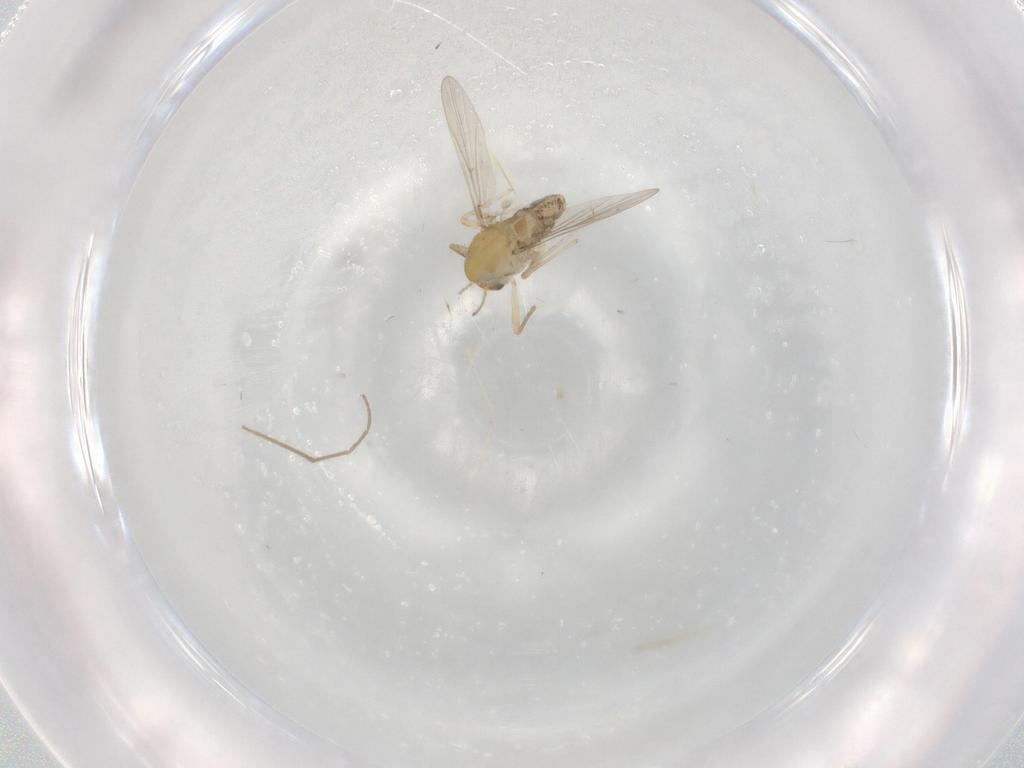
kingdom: Animalia
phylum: Arthropoda
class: Insecta
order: Diptera
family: Chironomidae
